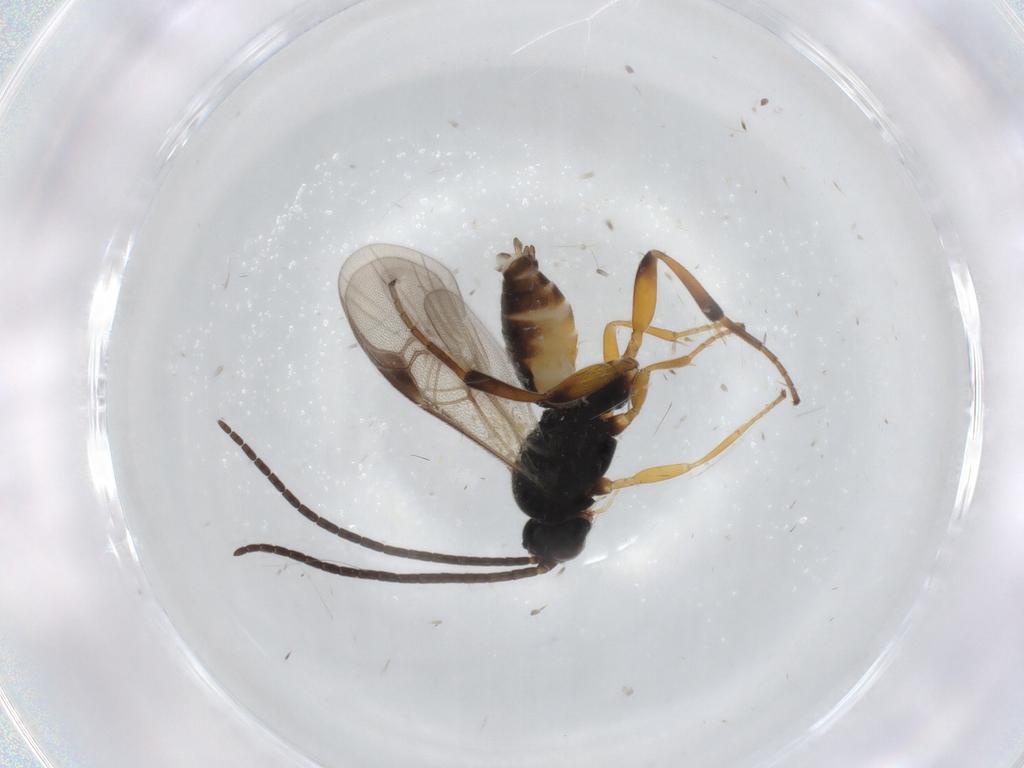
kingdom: Animalia
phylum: Arthropoda
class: Insecta
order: Hymenoptera
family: Braconidae
